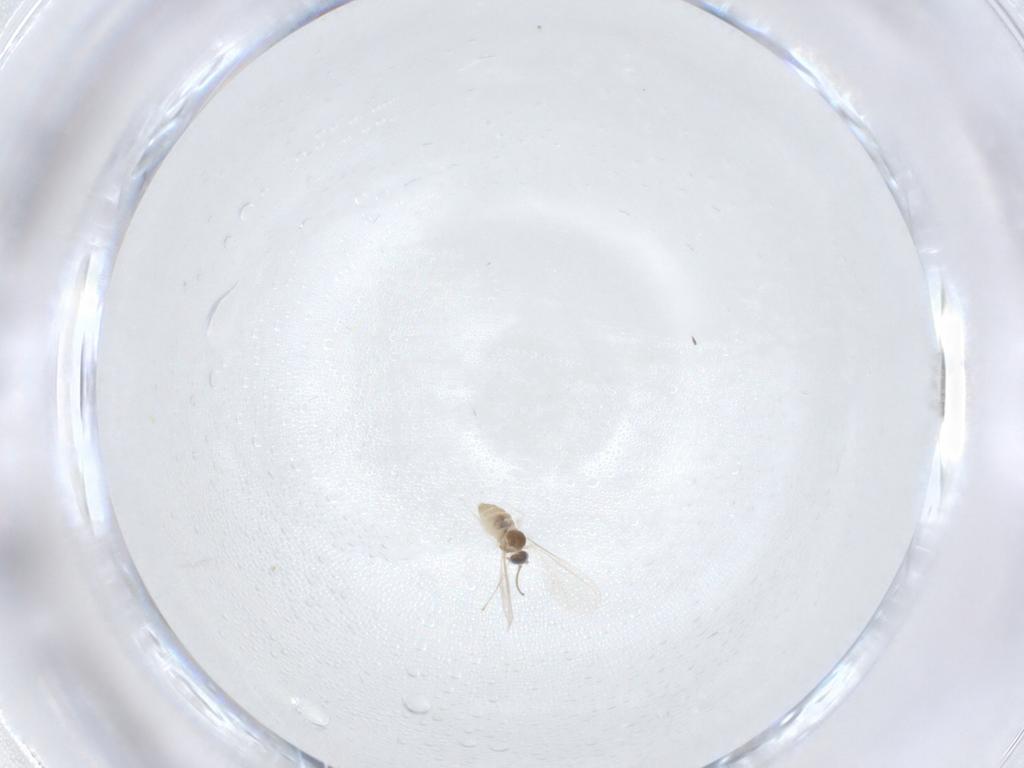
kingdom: Animalia
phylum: Arthropoda
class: Insecta
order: Diptera
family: Cecidomyiidae
